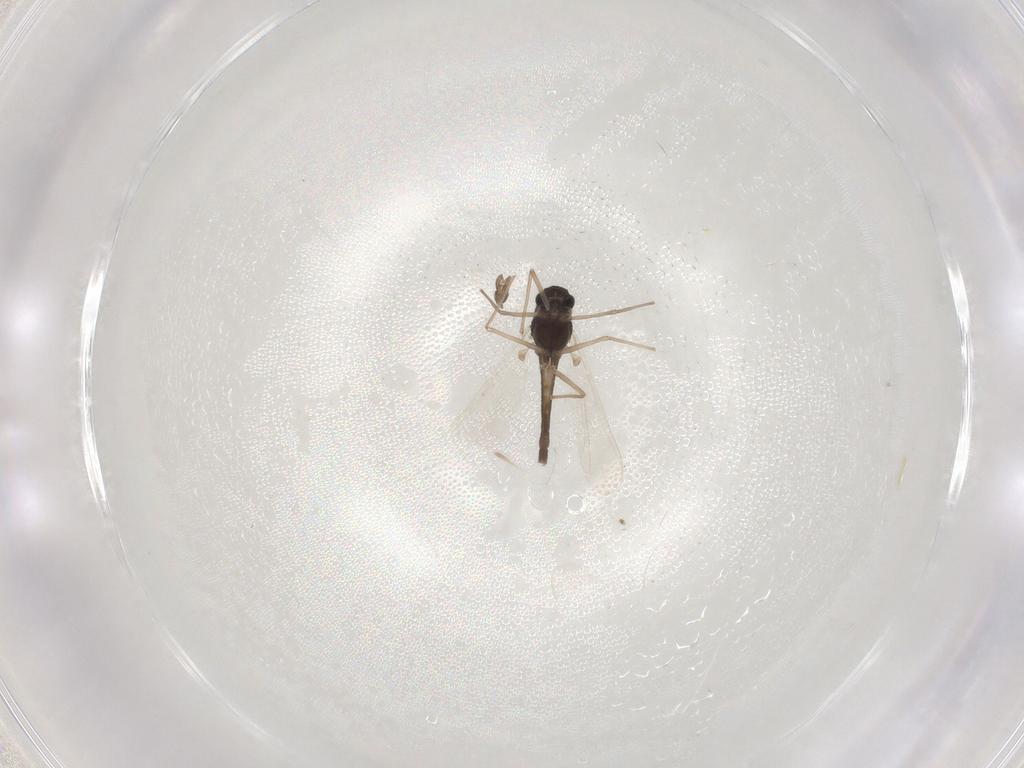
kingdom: Animalia
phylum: Arthropoda
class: Insecta
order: Diptera
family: Chironomidae
